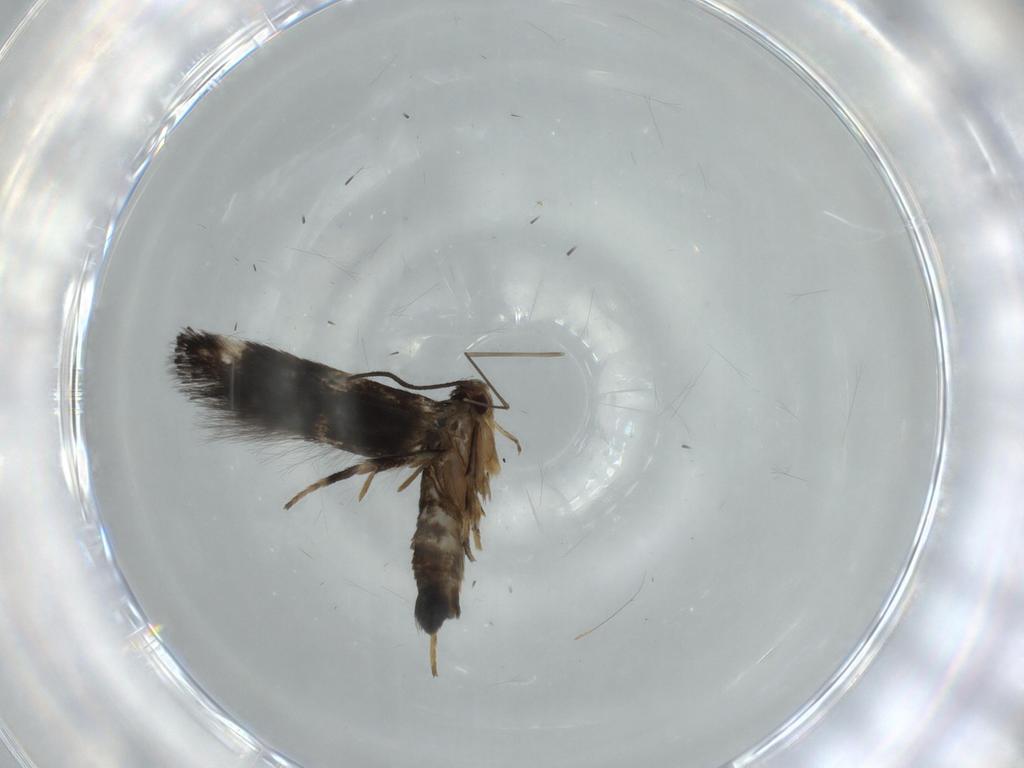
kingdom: Animalia
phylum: Arthropoda
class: Insecta
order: Lepidoptera
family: Cosmopterigidae
